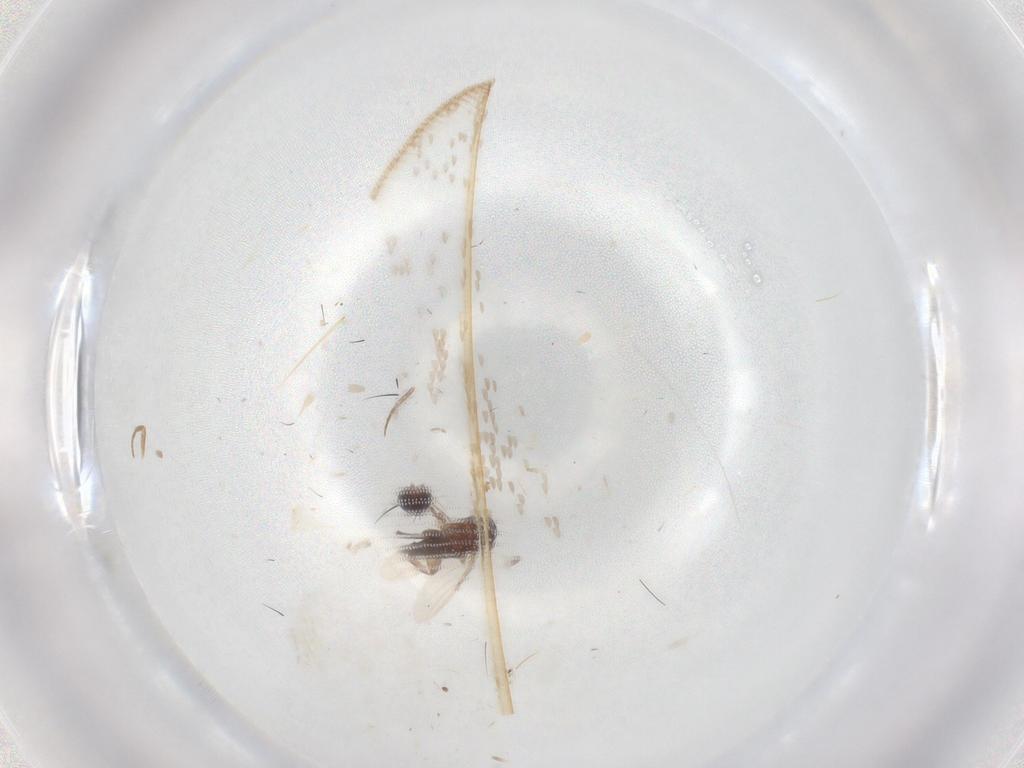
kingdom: Animalia
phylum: Arthropoda
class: Insecta
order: Diptera
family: Phoridae
